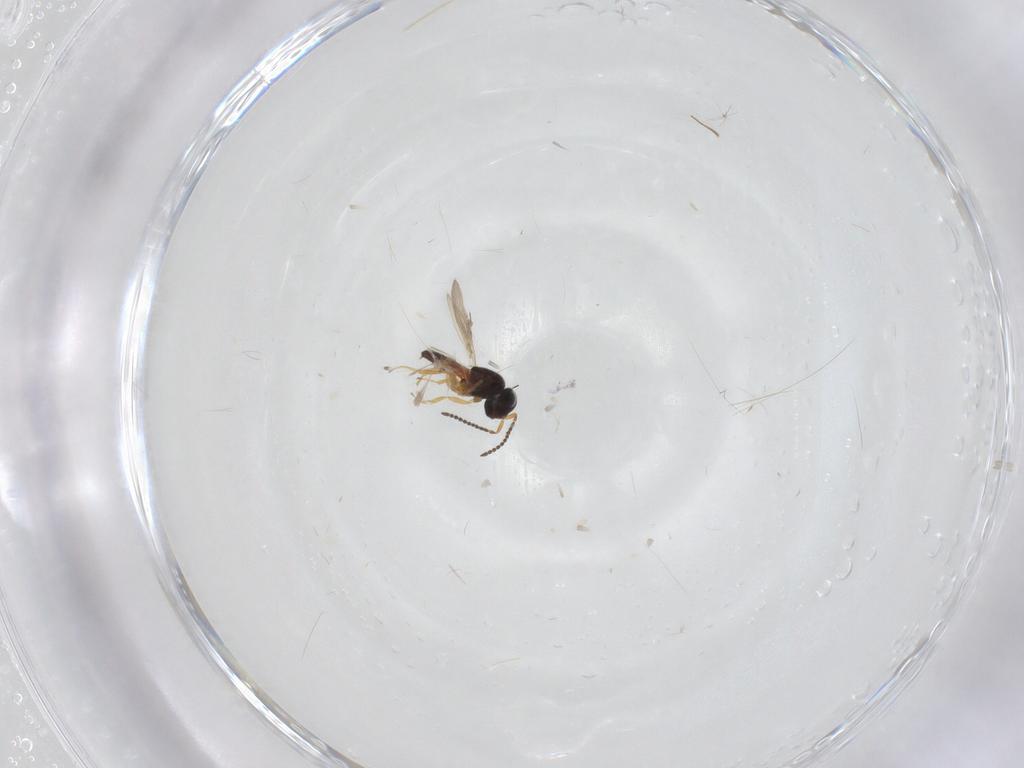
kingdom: Animalia
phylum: Arthropoda
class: Insecta
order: Hymenoptera
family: Scelionidae
